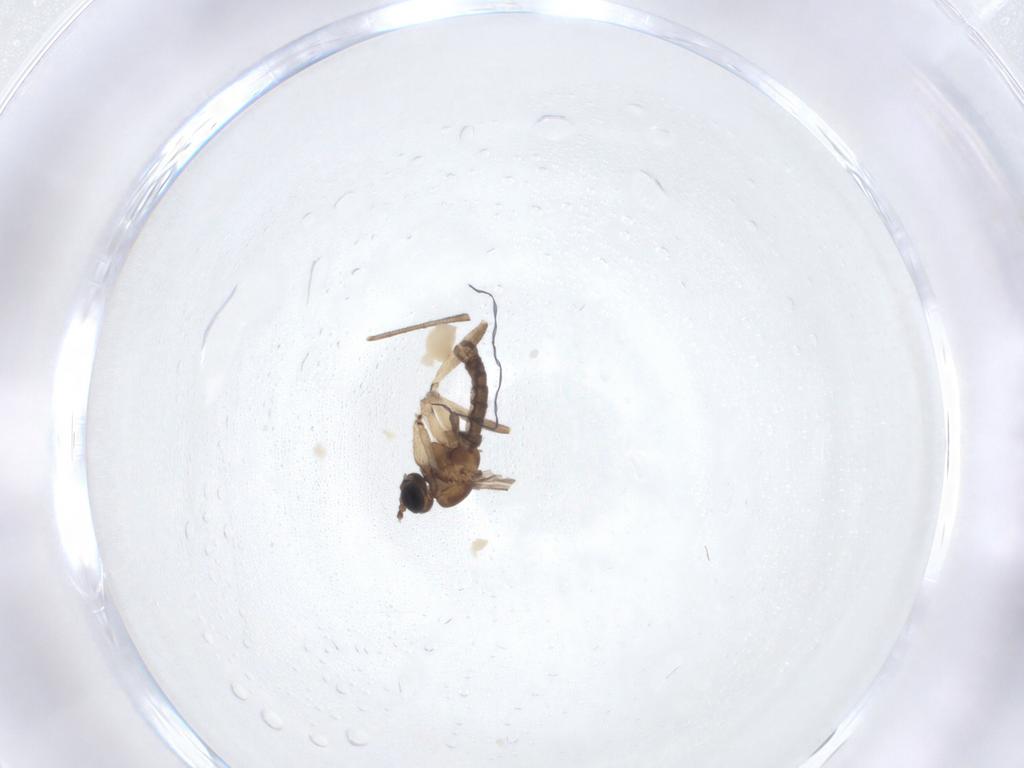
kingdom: Animalia
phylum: Arthropoda
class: Insecta
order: Diptera
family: Sciaridae
